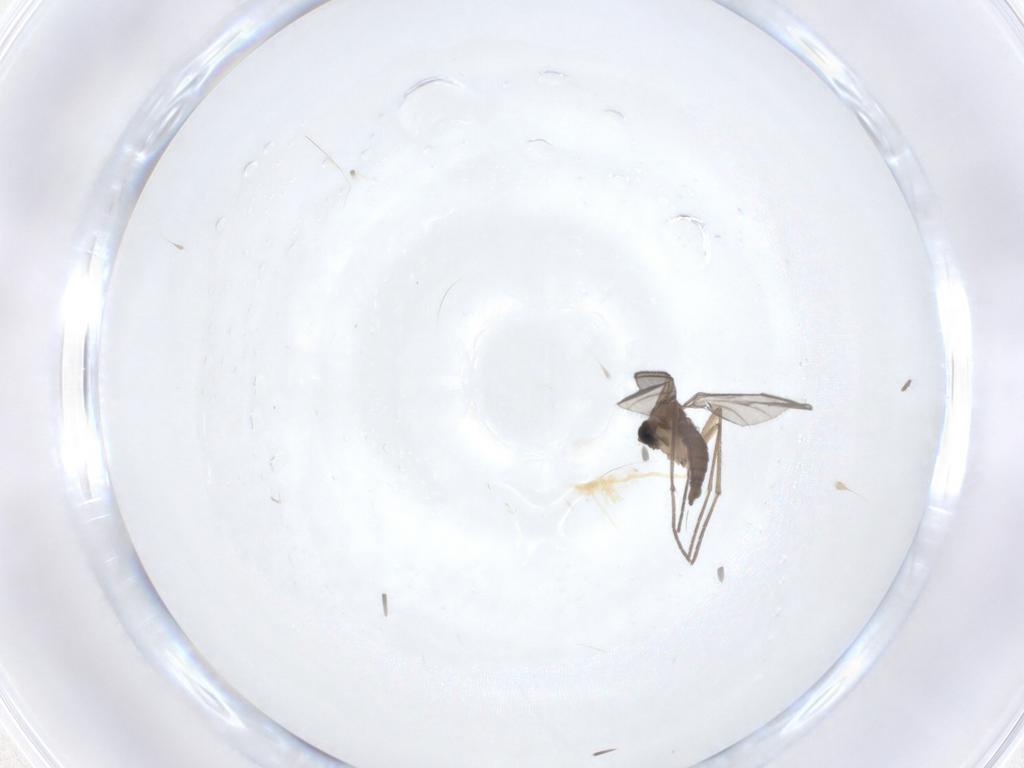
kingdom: Animalia
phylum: Arthropoda
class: Insecta
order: Diptera
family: Sciaridae
